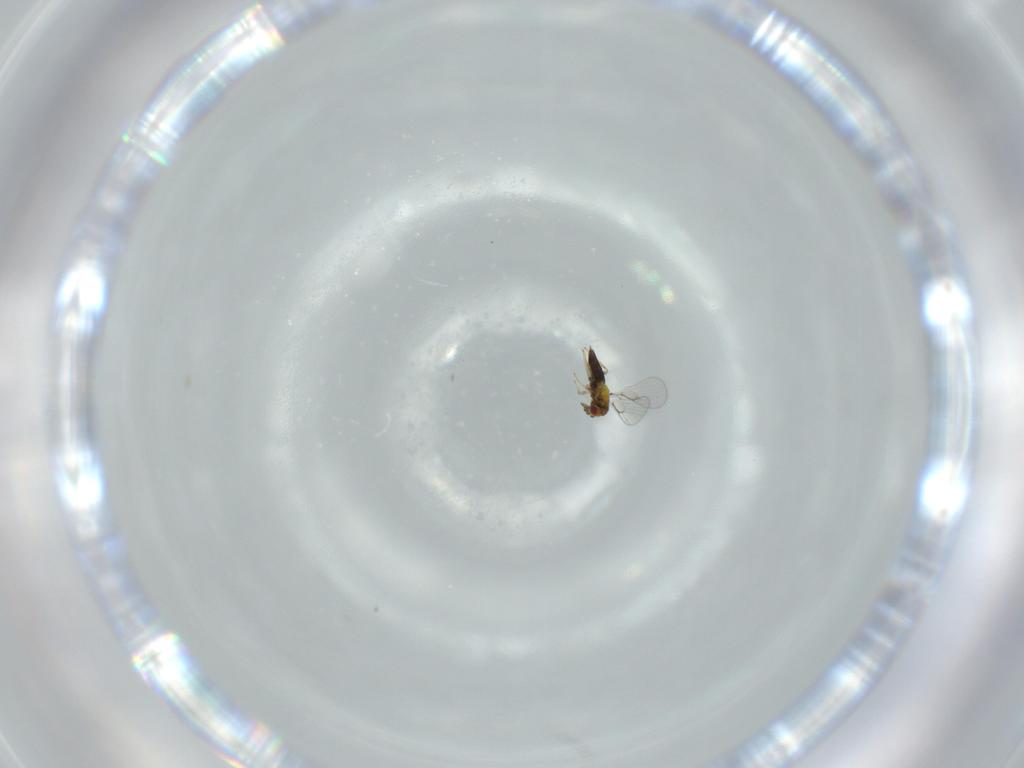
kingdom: Animalia
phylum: Arthropoda
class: Insecta
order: Hymenoptera
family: Trichogrammatidae
